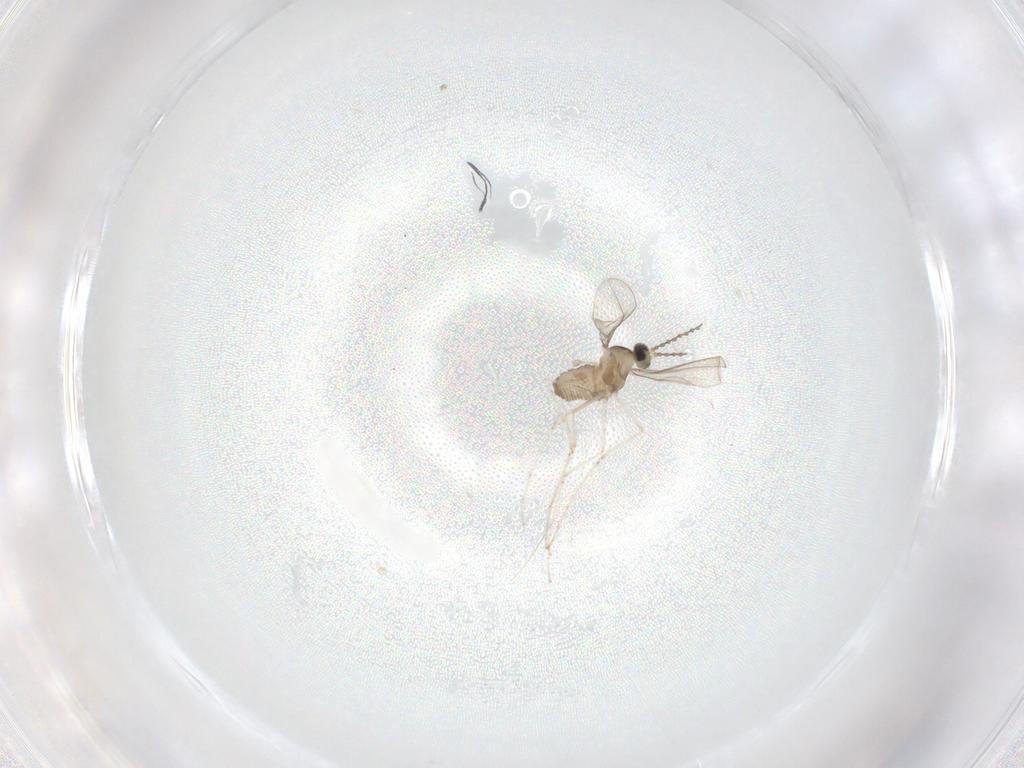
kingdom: Animalia
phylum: Arthropoda
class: Insecta
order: Diptera
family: Cecidomyiidae
